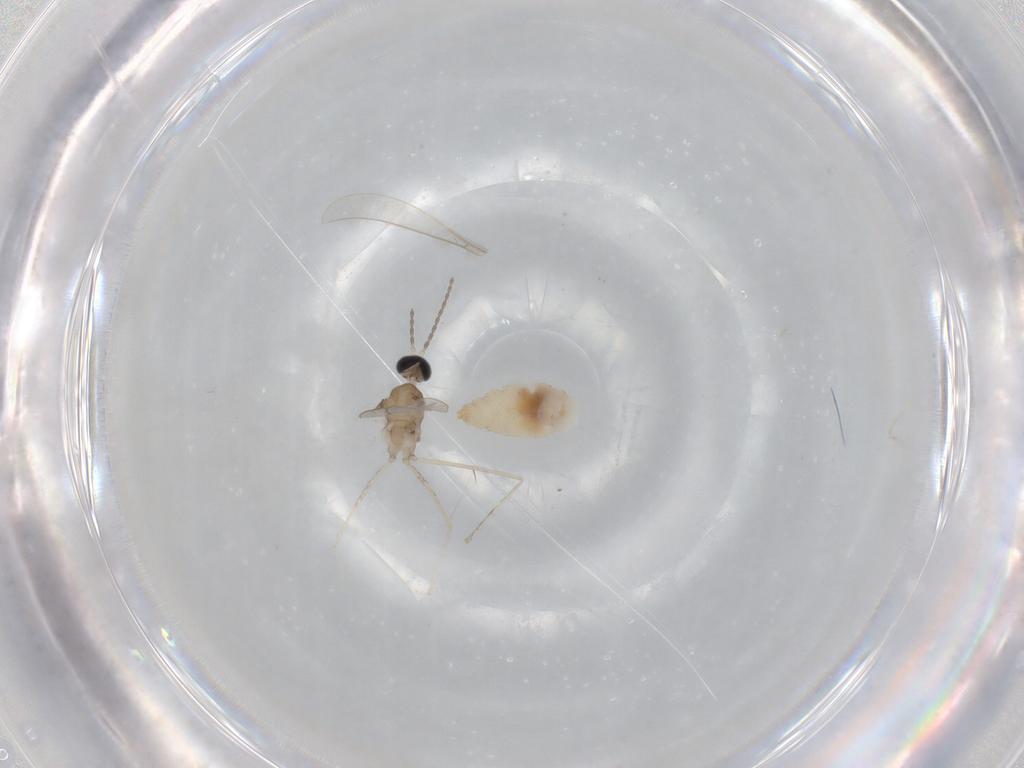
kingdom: Animalia
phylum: Arthropoda
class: Insecta
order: Diptera
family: Cecidomyiidae
